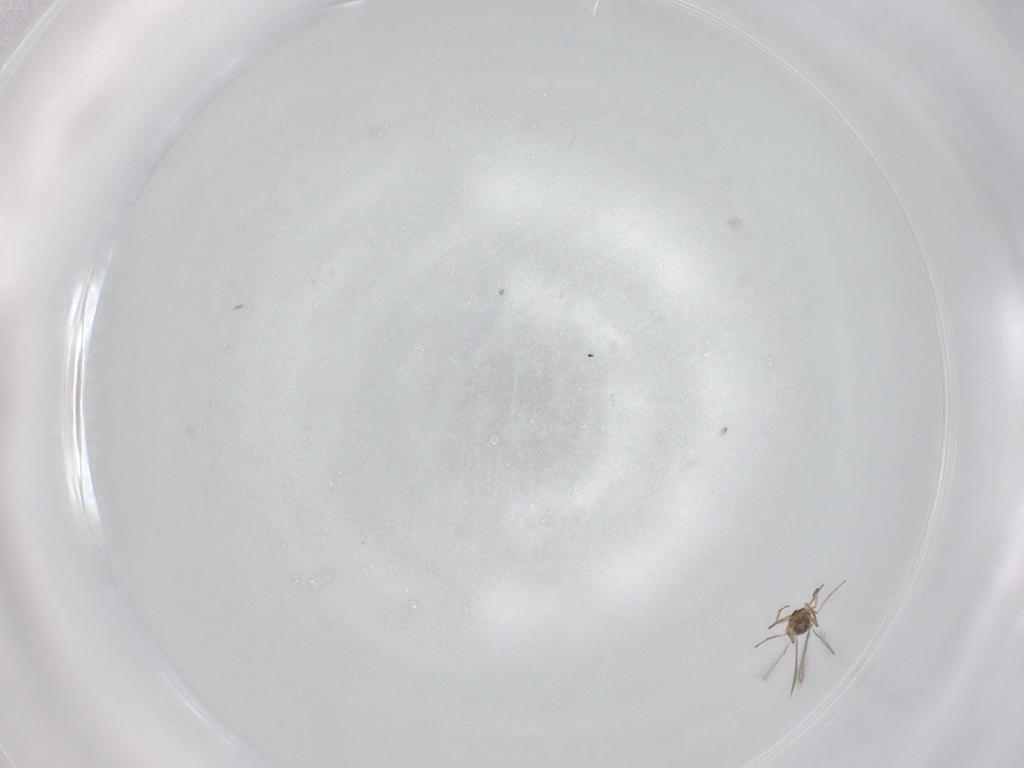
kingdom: Animalia
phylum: Arthropoda
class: Insecta
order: Hymenoptera
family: Mymaridae
